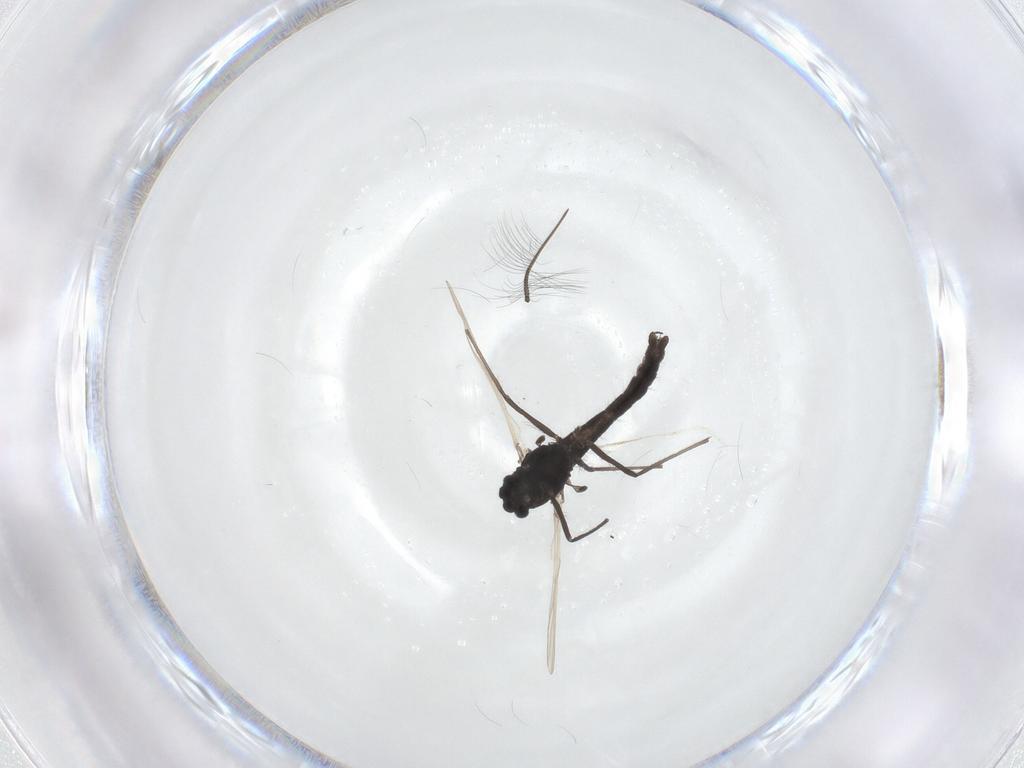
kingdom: Animalia
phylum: Arthropoda
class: Insecta
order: Diptera
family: Chironomidae
